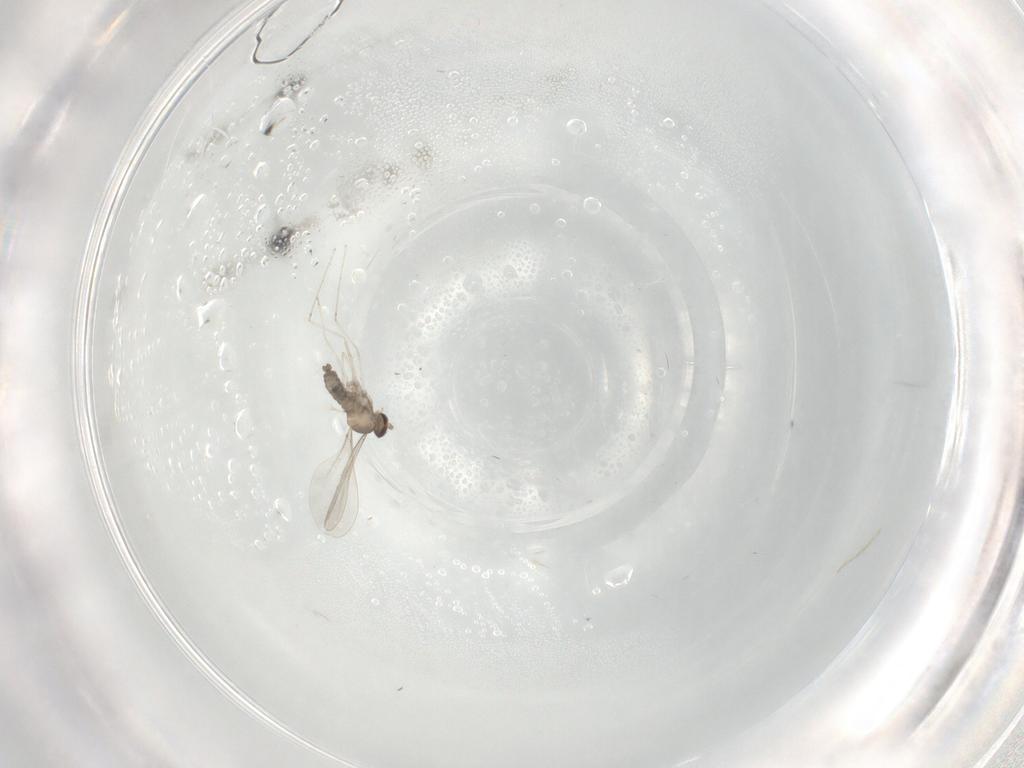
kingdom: Animalia
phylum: Arthropoda
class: Insecta
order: Diptera
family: Cecidomyiidae
